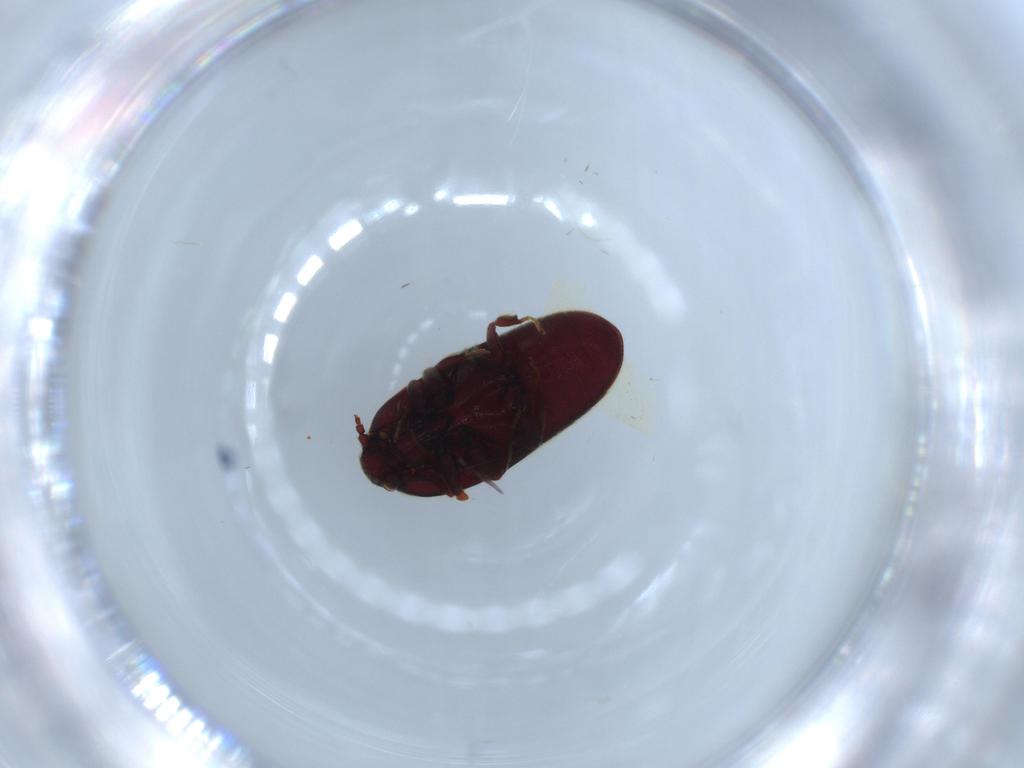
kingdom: Animalia
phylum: Arthropoda
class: Insecta
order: Coleoptera
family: Throscidae
